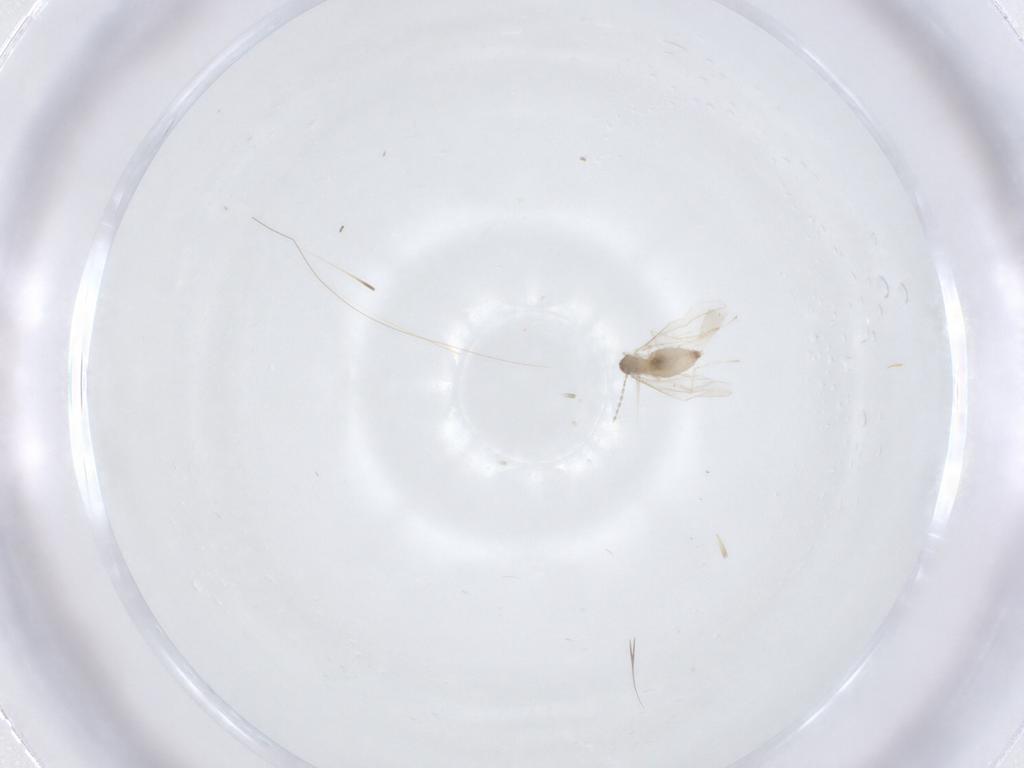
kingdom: Animalia
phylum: Arthropoda
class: Insecta
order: Diptera
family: Cecidomyiidae
